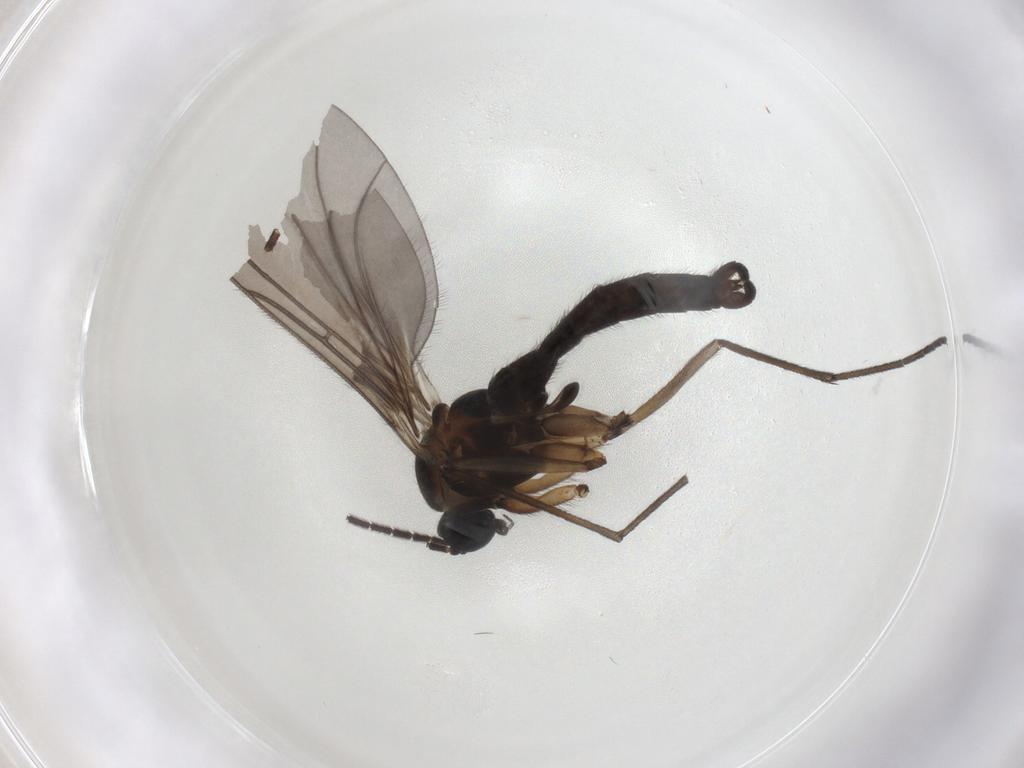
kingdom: Animalia
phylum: Arthropoda
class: Insecta
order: Diptera
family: Sciaridae
